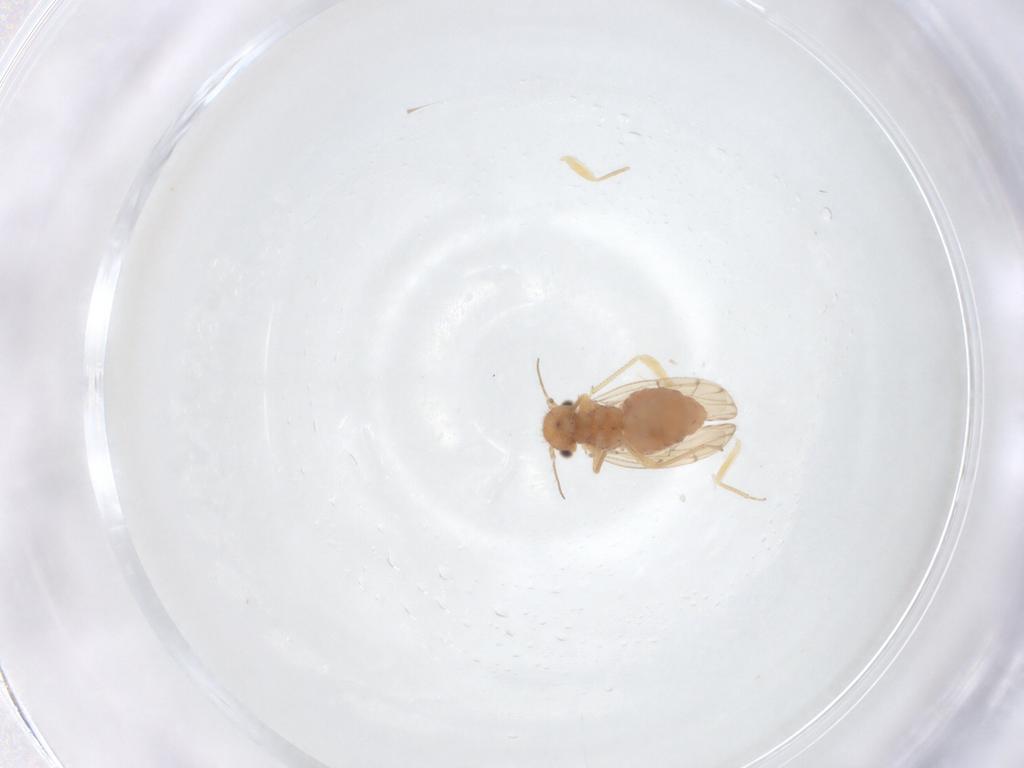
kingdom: Animalia
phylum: Arthropoda
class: Insecta
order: Psocodea
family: Ectopsocidae
